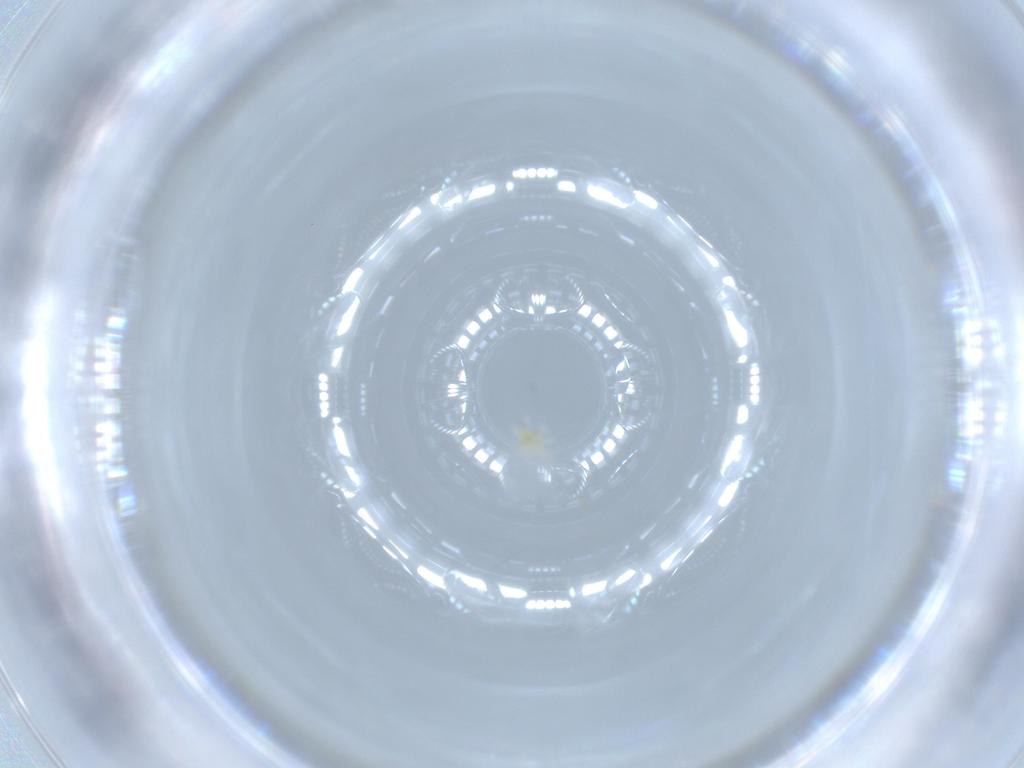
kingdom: Animalia
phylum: Arthropoda
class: Arachnida
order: Trombidiformes
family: Cunaxidae
